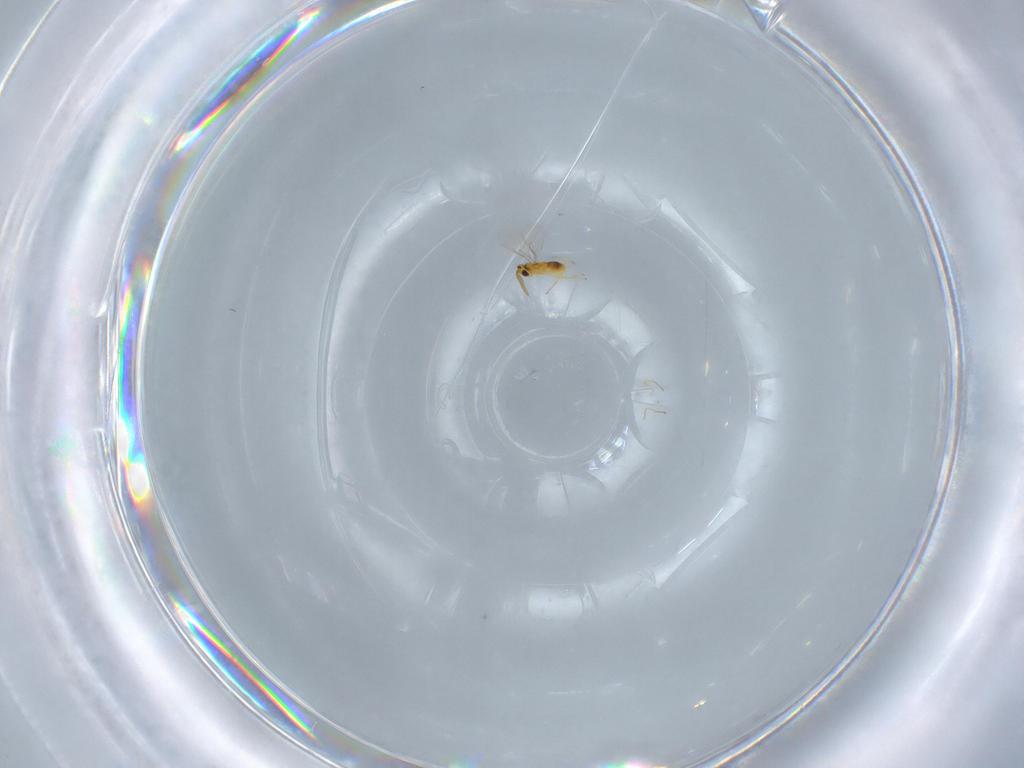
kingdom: Animalia
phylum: Arthropoda
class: Insecta
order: Hymenoptera
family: Aphelinidae
